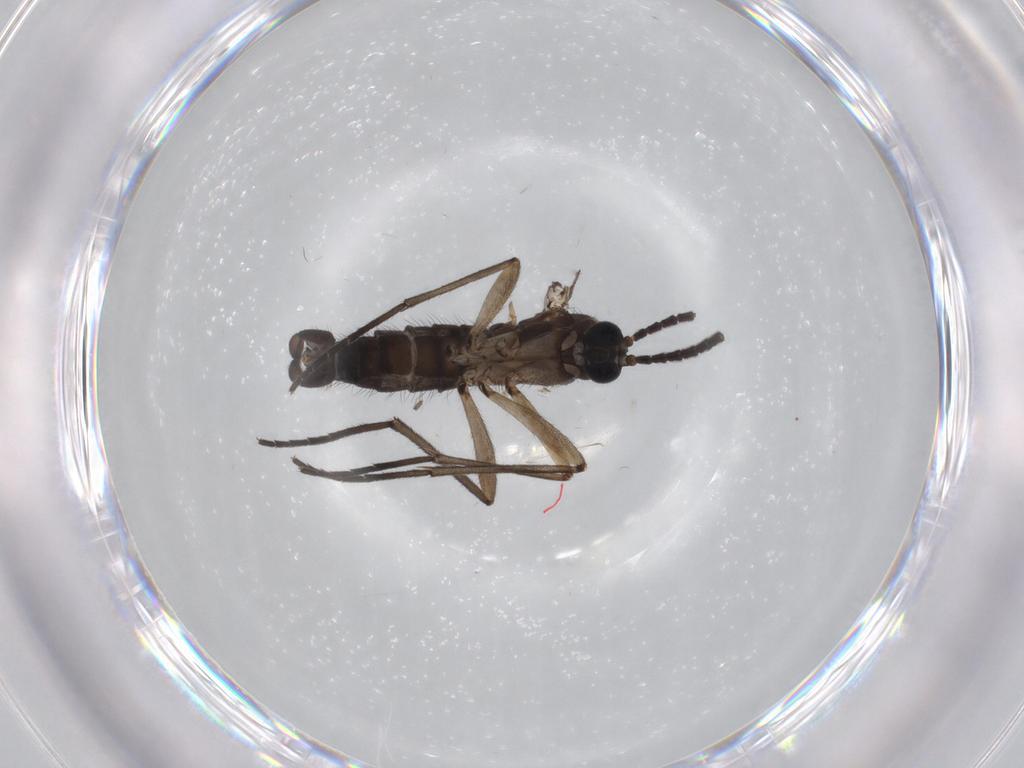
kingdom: Animalia
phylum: Arthropoda
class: Insecta
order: Diptera
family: Sciaridae
